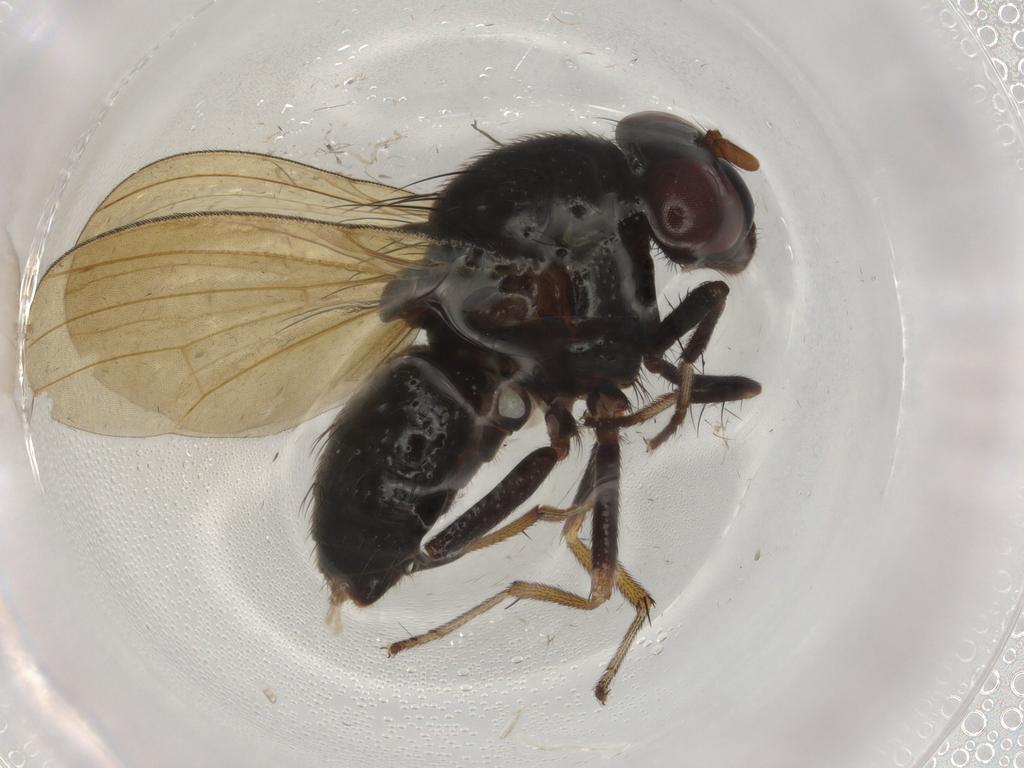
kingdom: Animalia
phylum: Arthropoda
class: Insecta
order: Diptera
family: Phoridae
